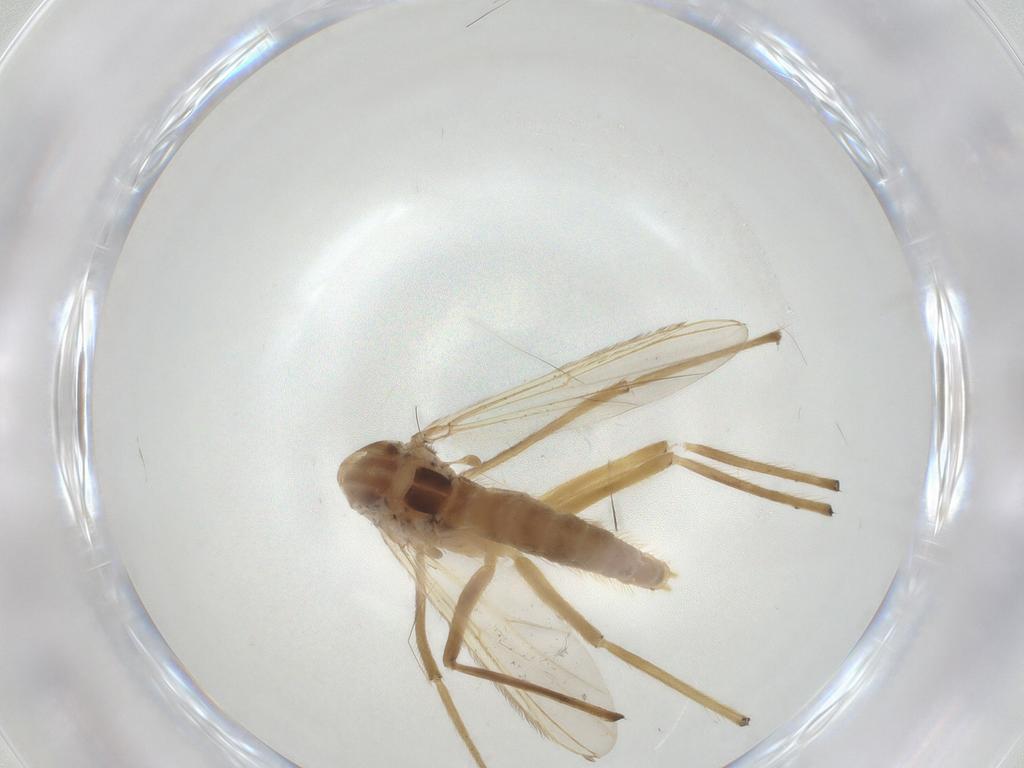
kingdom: Animalia
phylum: Arthropoda
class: Insecta
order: Diptera
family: Chironomidae
